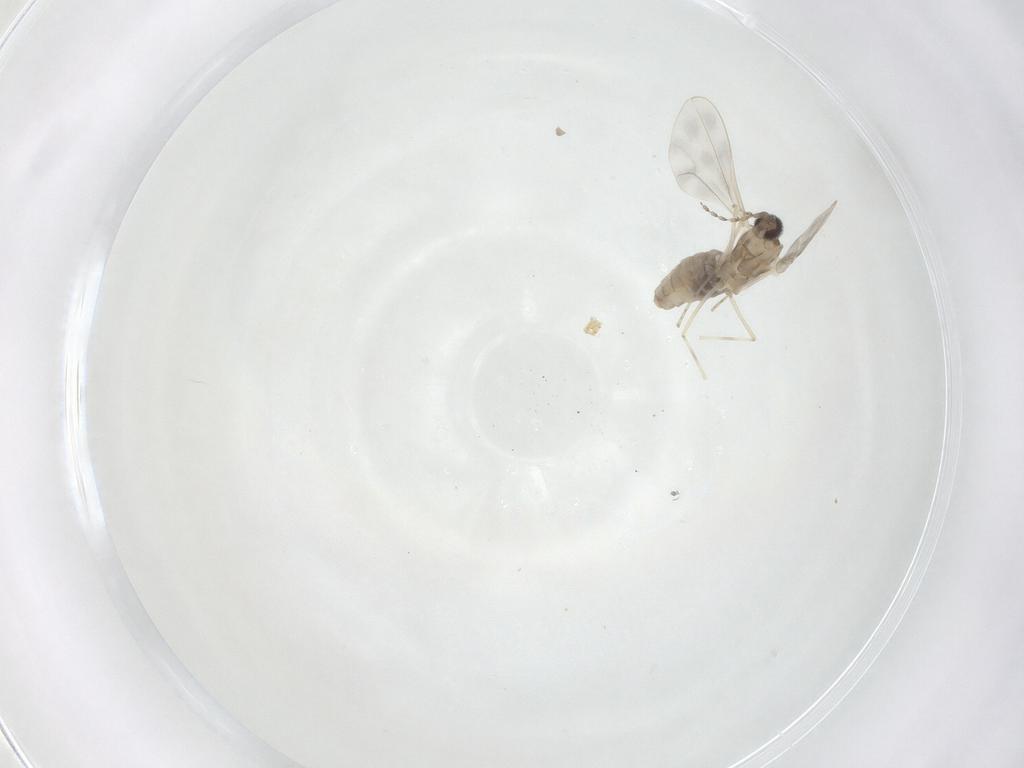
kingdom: Animalia
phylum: Arthropoda
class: Insecta
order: Diptera
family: Cecidomyiidae
